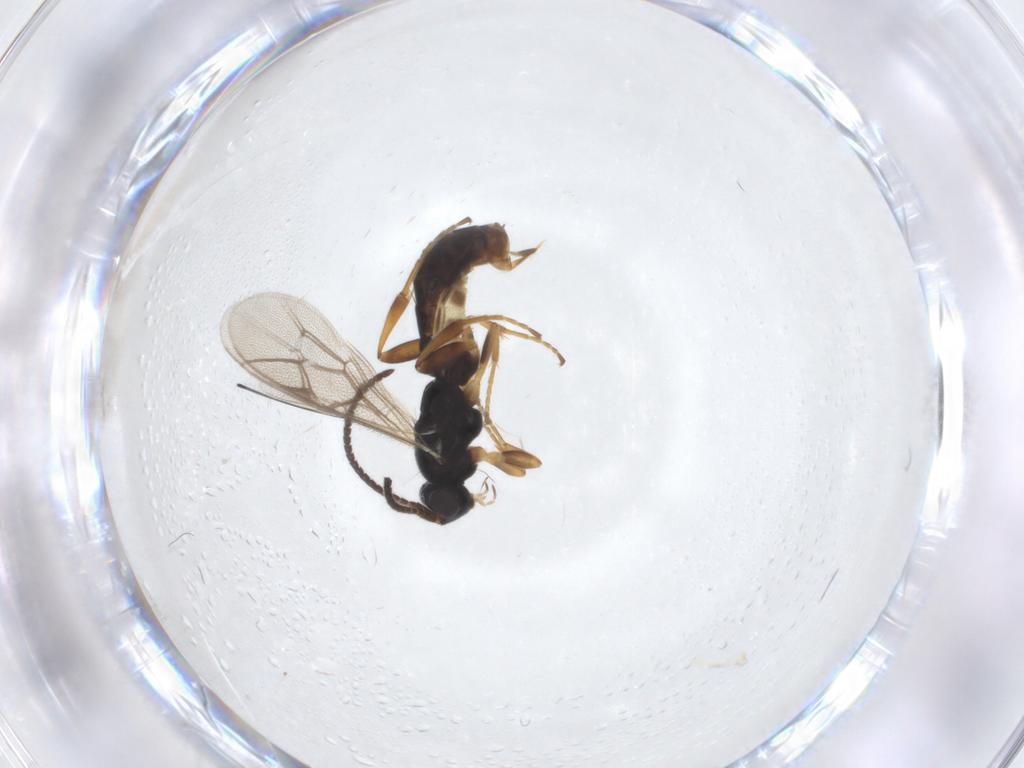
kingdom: Animalia
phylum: Arthropoda
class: Insecta
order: Hymenoptera
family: Ichneumonidae
